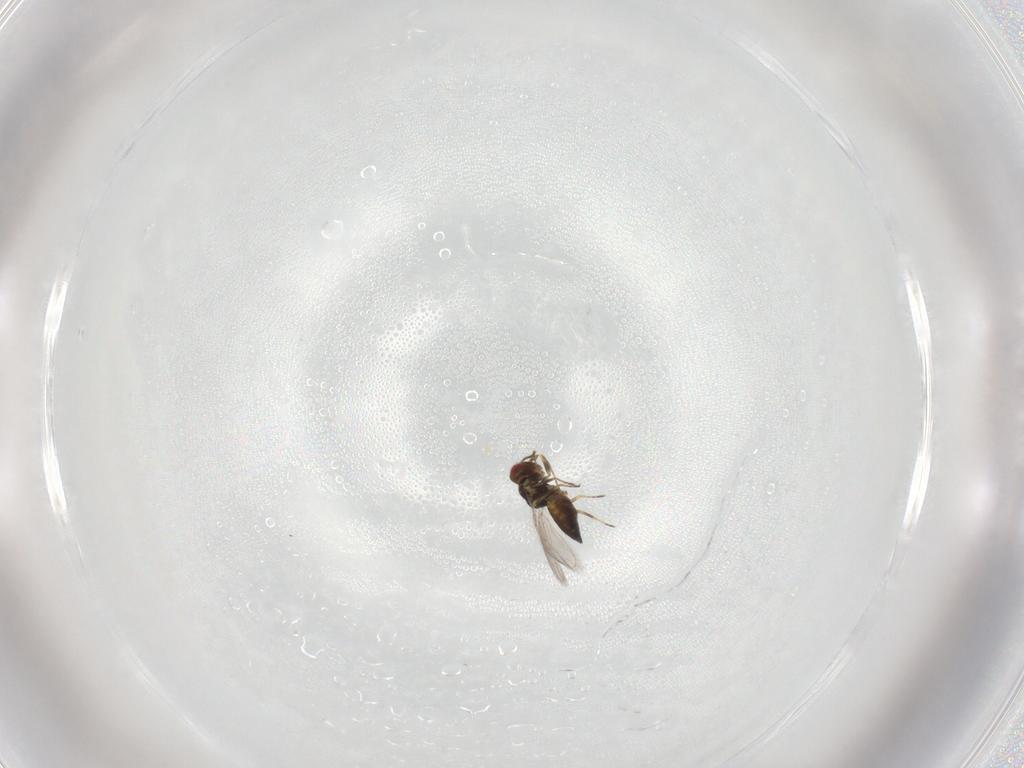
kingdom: Animalia
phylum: Arthropoda
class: Insecta
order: Hymenoptera
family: Eulophidae
